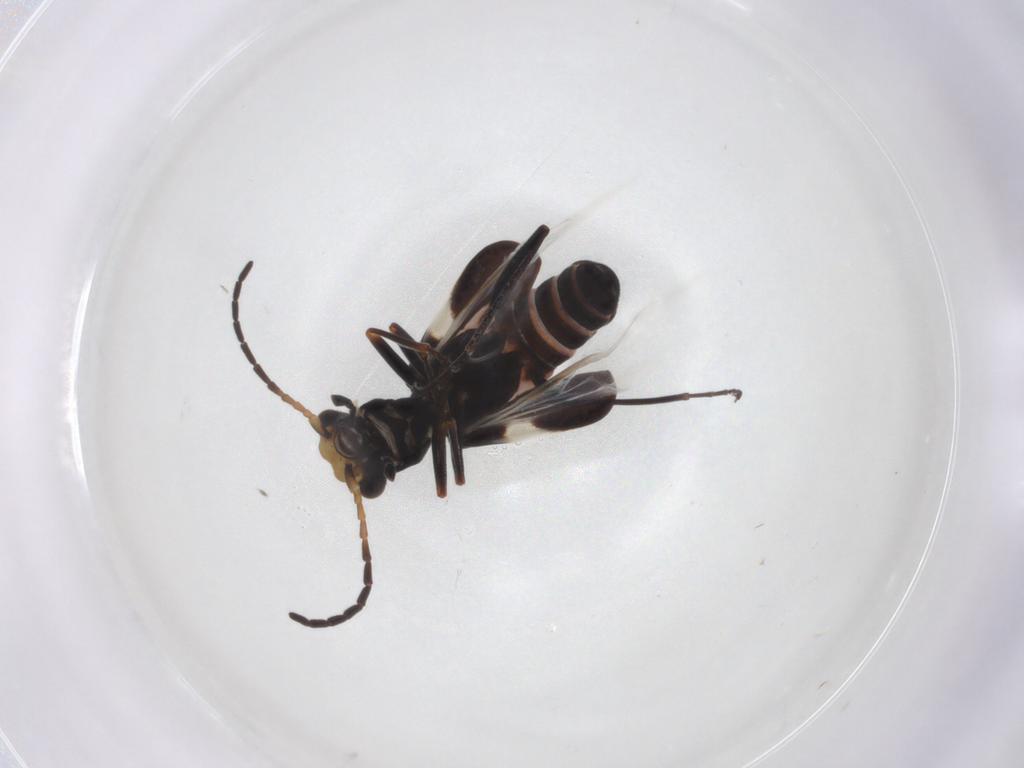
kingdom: Animalia
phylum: Arthropoda
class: Insecta
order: Coleoptera
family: Melyridae
